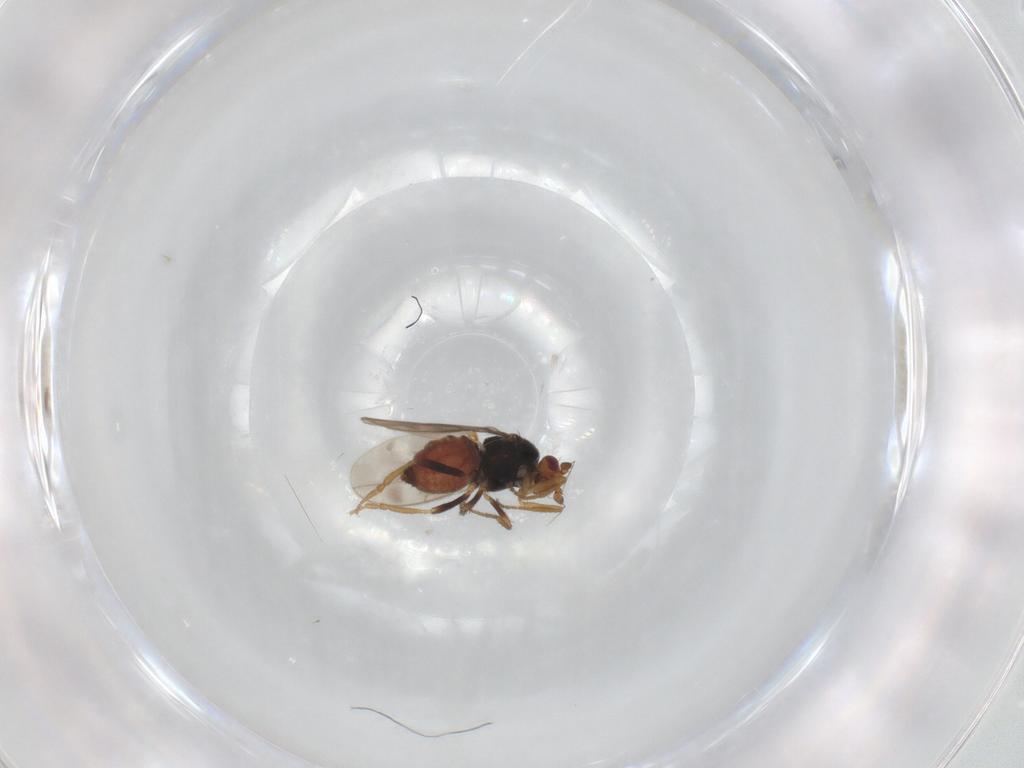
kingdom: Animalia
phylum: Arthropoda
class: Insecta
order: Diptera
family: Sphaeroceridae
